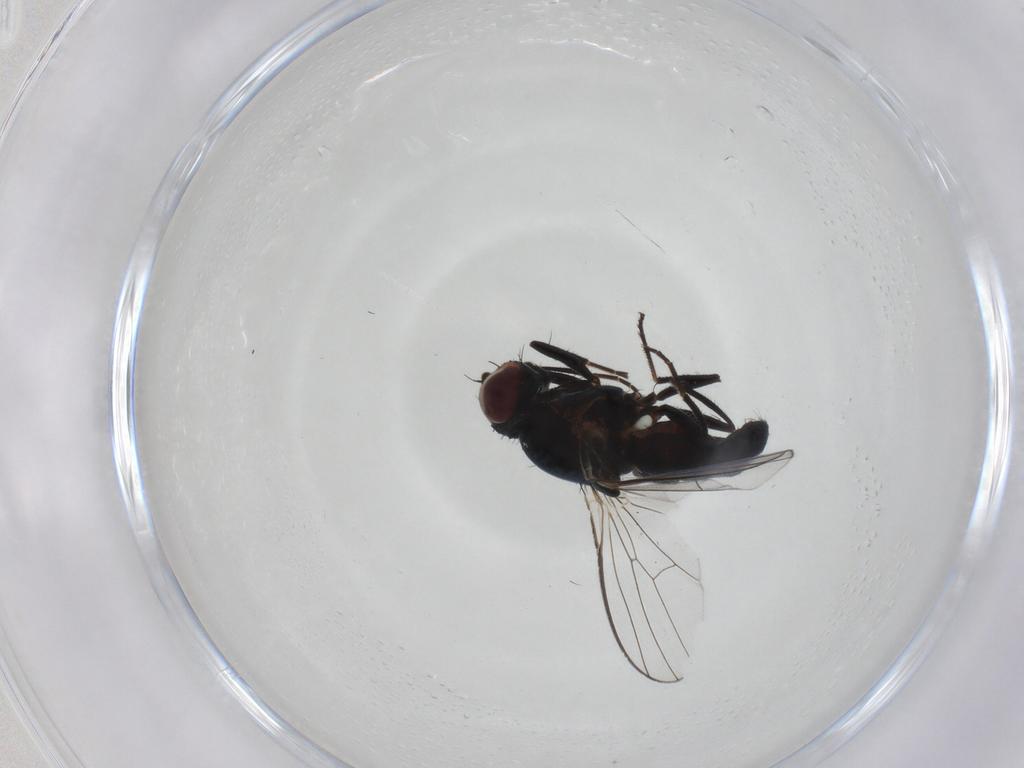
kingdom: Animalia
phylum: Arthropoda
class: Insecta
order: Diptera
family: Carnidae
